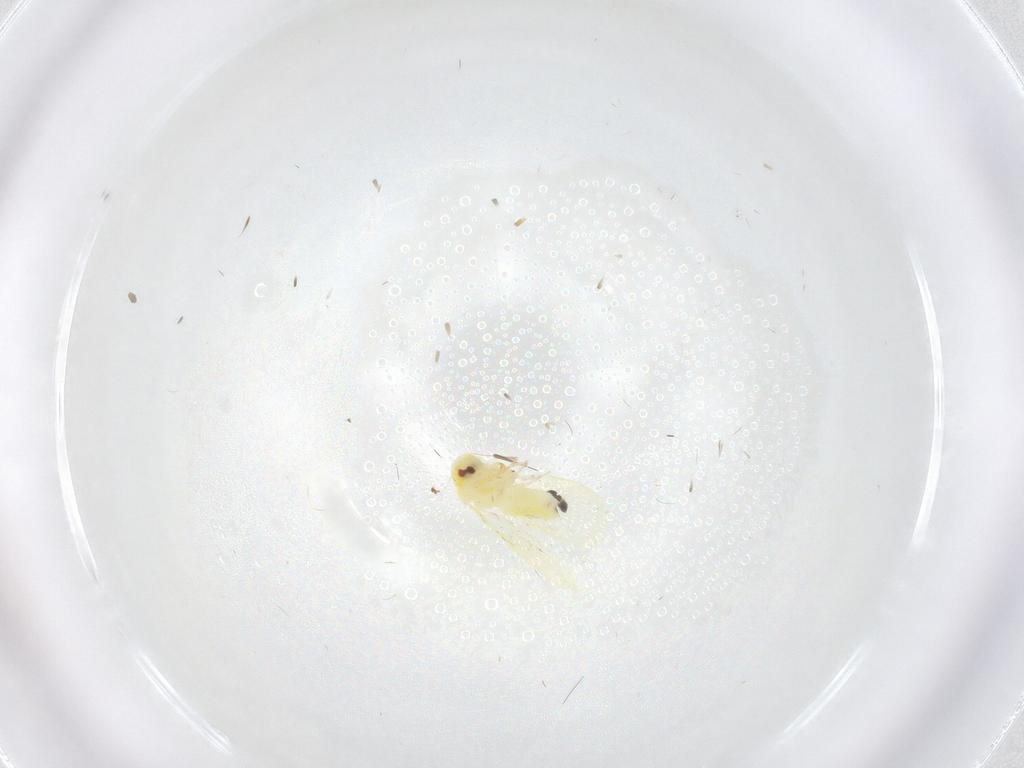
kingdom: Animalia
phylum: Arthropoda
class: Insecta
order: Hemiptera
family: Aleyrodidae
